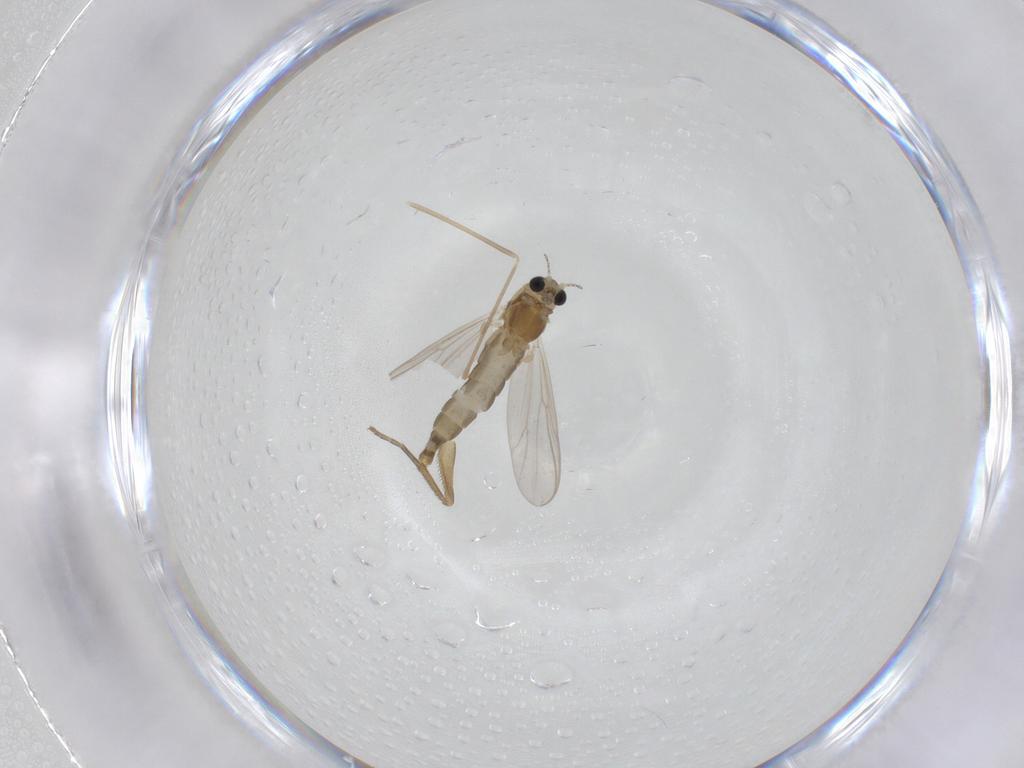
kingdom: Animalia
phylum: Arthropoda
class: Insecta
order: Diptera
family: Chironomidae
